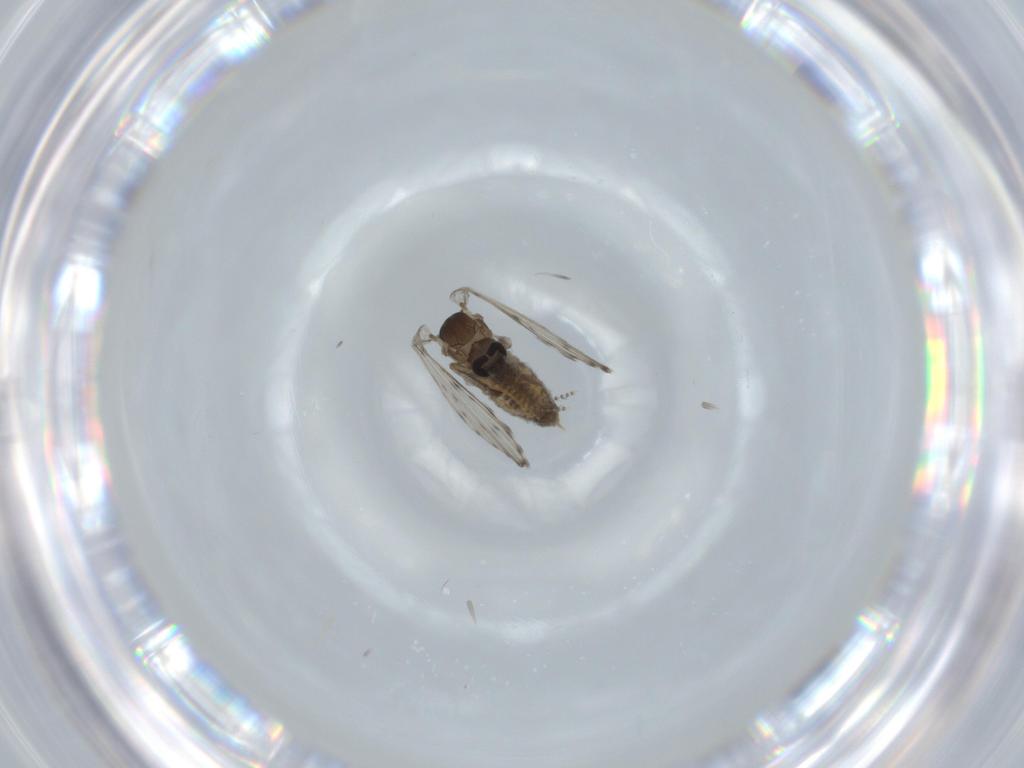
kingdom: Animalia
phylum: Arthropoda
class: Insecta
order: Diptera
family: Psychodidae
